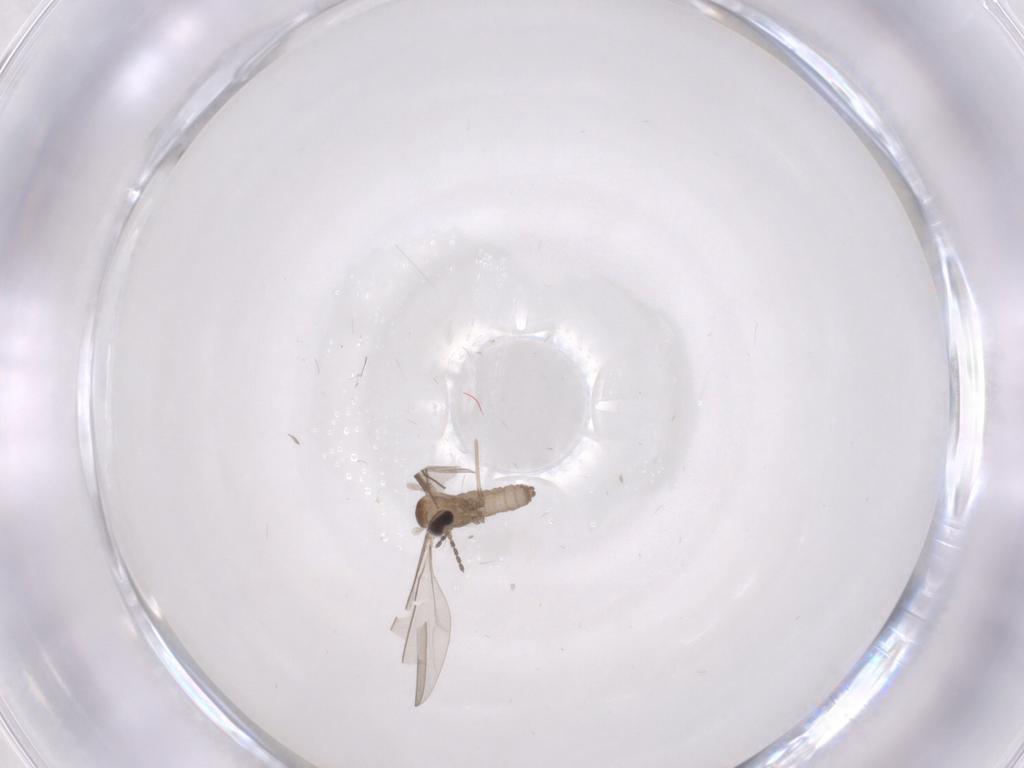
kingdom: Animalia
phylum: Arthropoda
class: Insecta
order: Diptera
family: Cecidomyiidae
